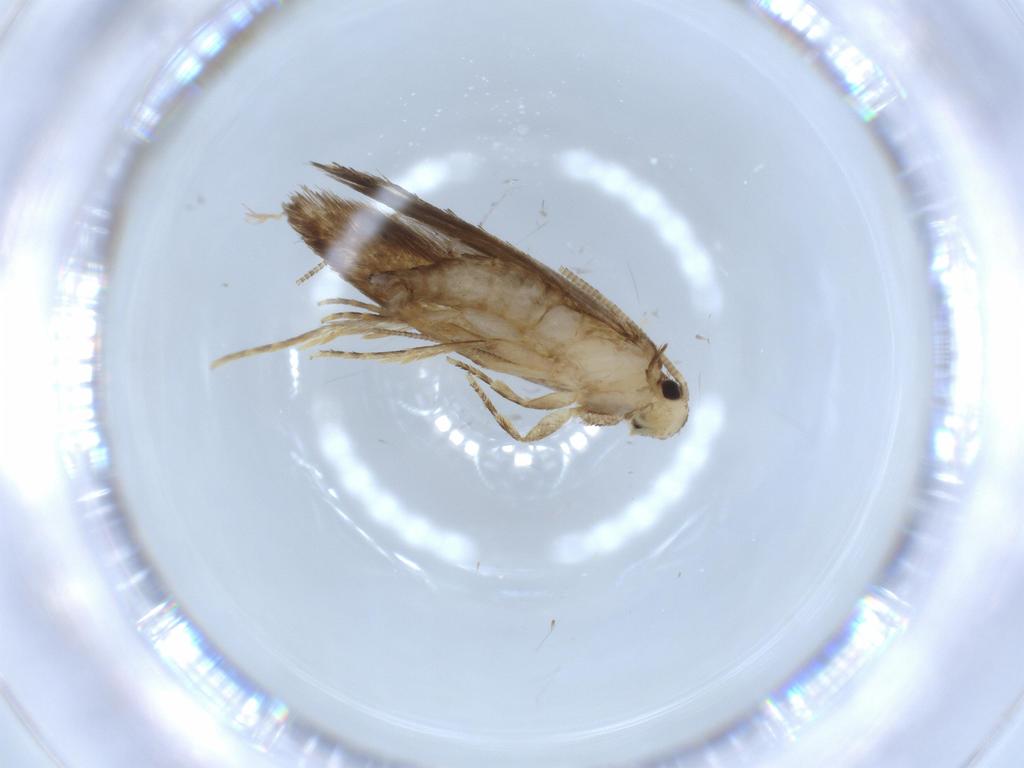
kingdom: Animalia
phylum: Arthropoda
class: Insecta
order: Lepidoptera
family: Tineidae
